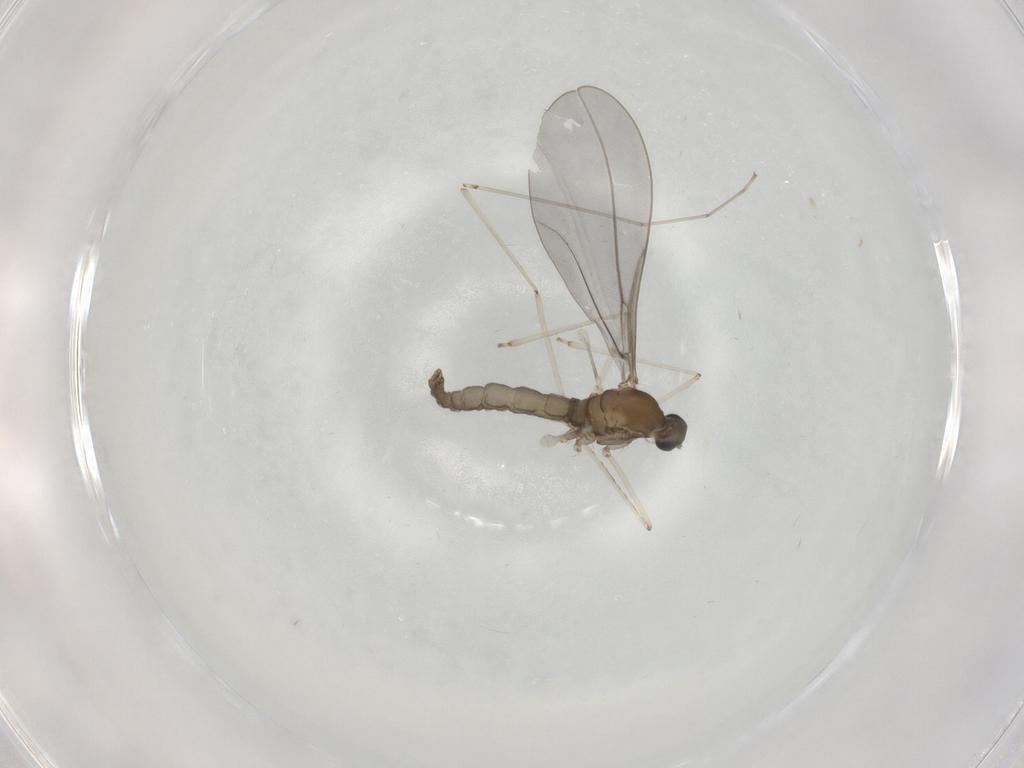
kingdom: Animalia
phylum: Arthropoda
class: Insecta
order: Diptera
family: Cecidomyiidae
